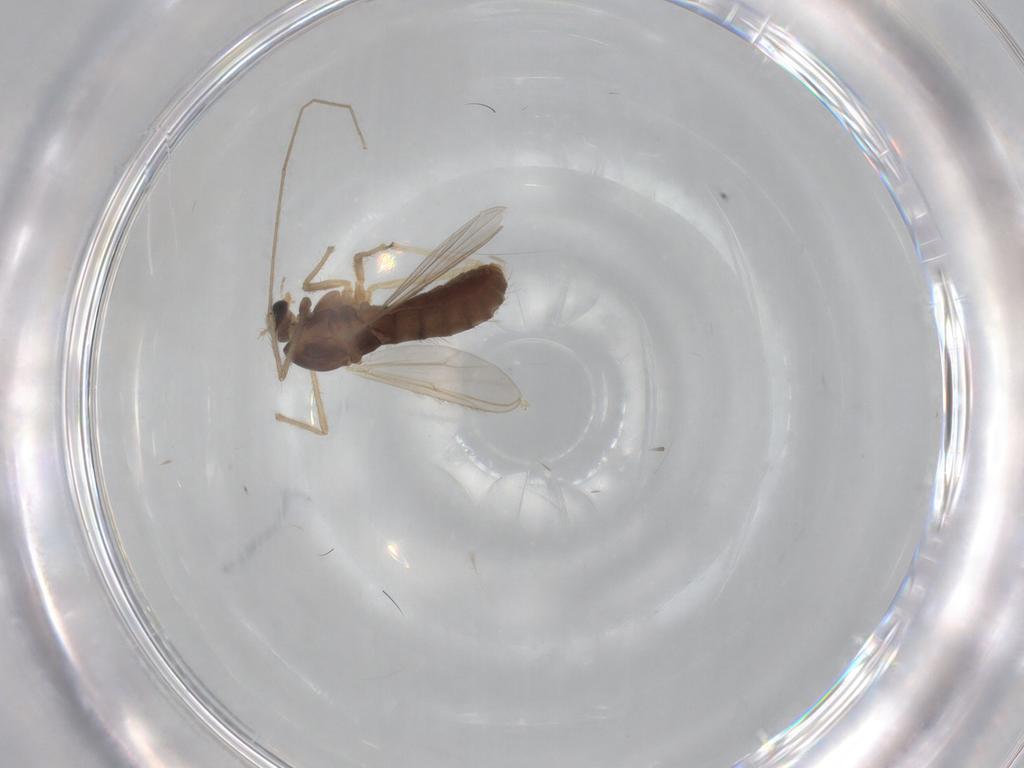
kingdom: Animalia
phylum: Arthropoda
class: Insecta
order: Diptera
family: Chironomidae
